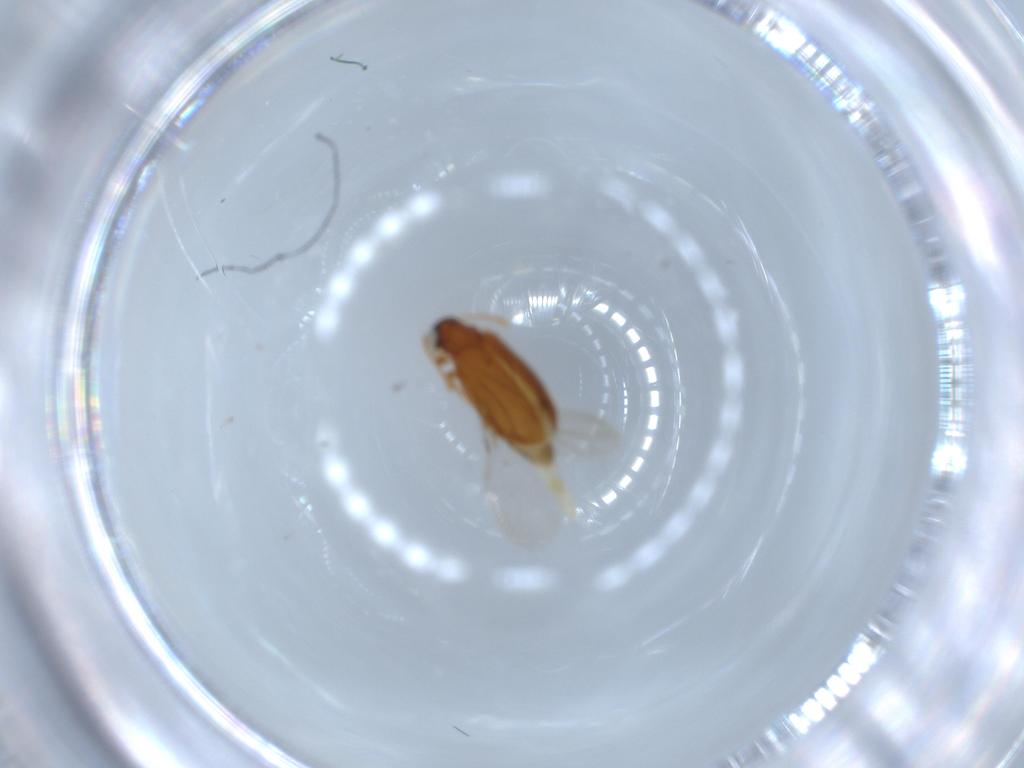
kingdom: Animalia
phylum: Arthropoda
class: Insecta
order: Coleoptera
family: Aderidae
